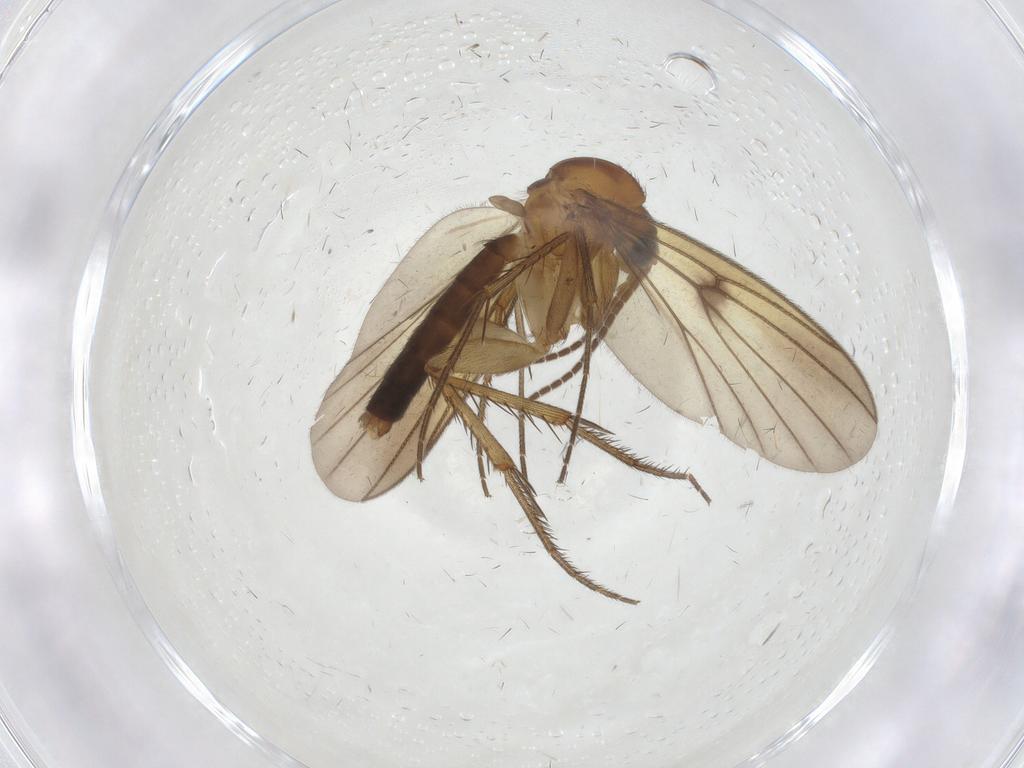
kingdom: Animalia
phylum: Arthropoda
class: Insecta
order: Diptera
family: Mycetophilidae
